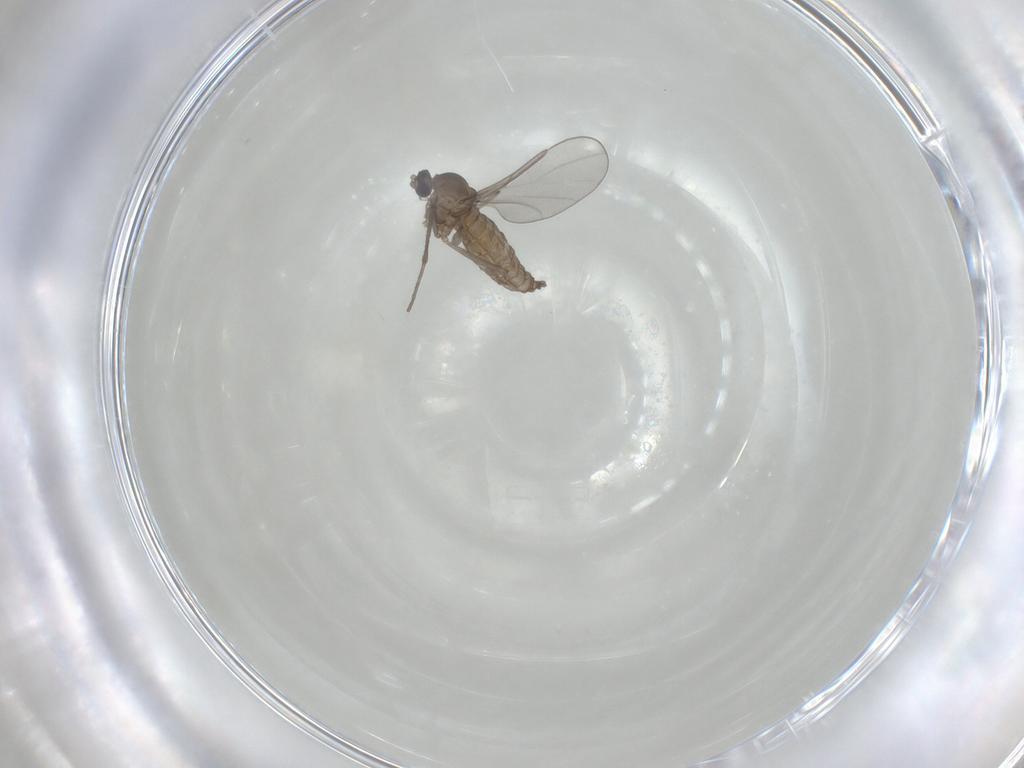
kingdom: Animalia
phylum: Arthropoda
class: Insecta
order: Diptera
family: Cecidomyiidae
